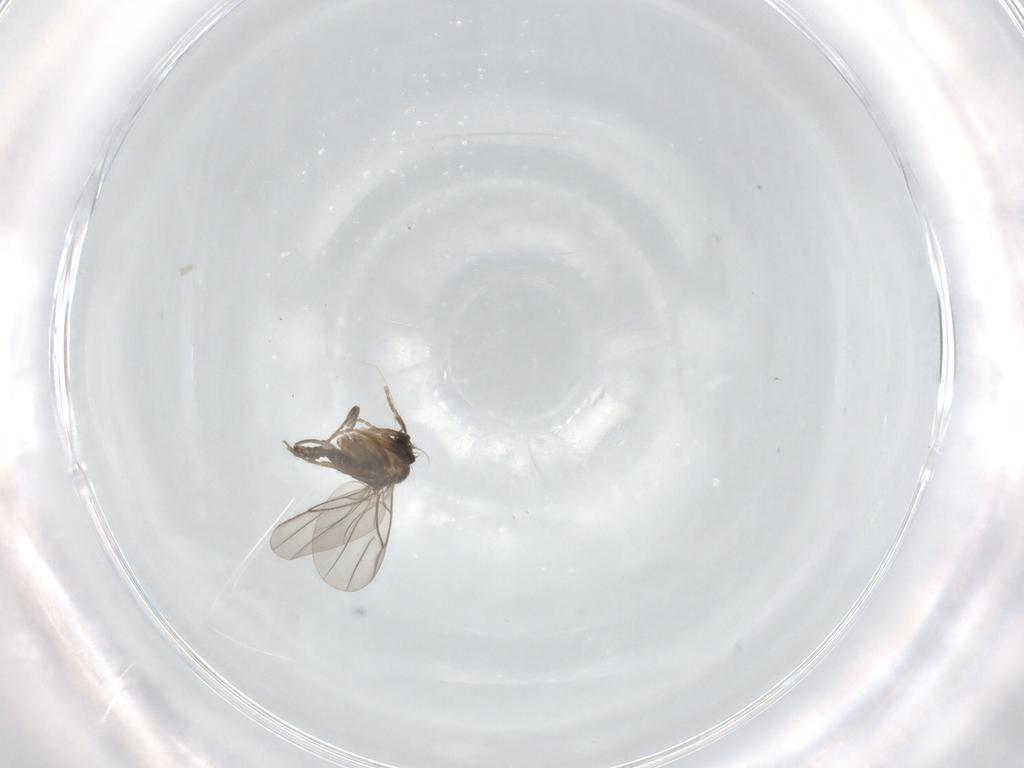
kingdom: Animalia
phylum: Arthropoda
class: Insecta
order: Diptera
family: Phoridae
